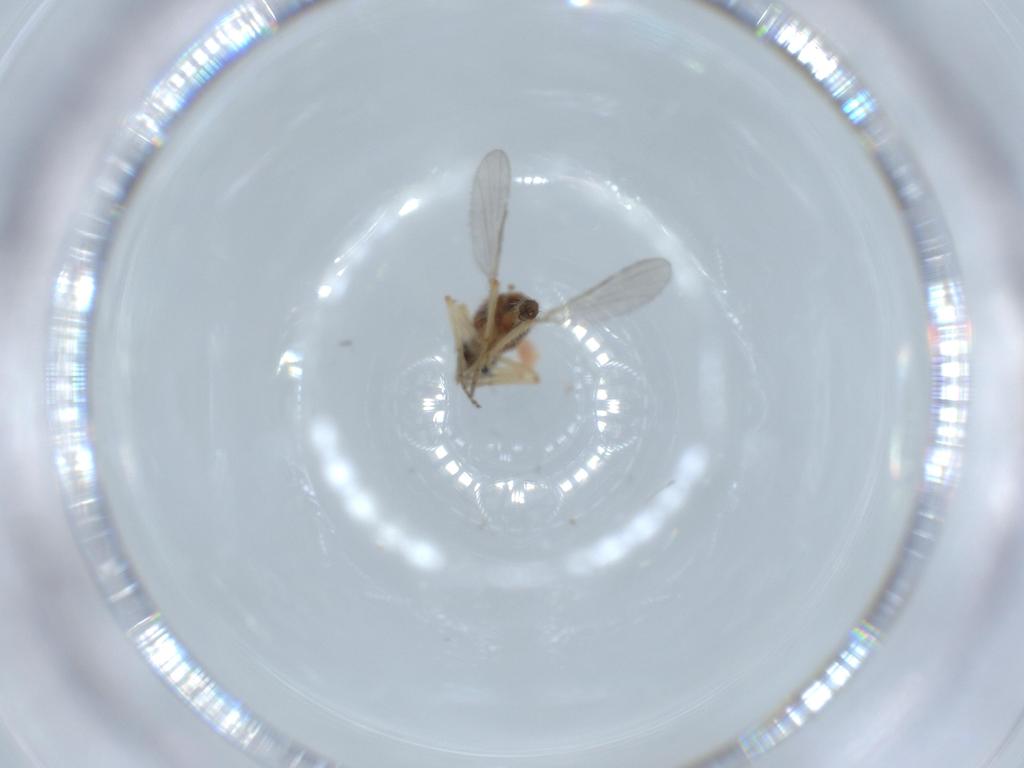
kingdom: Animalia
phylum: Arthropoda
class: Insecta
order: Diptera
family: Ceratopogonidae
